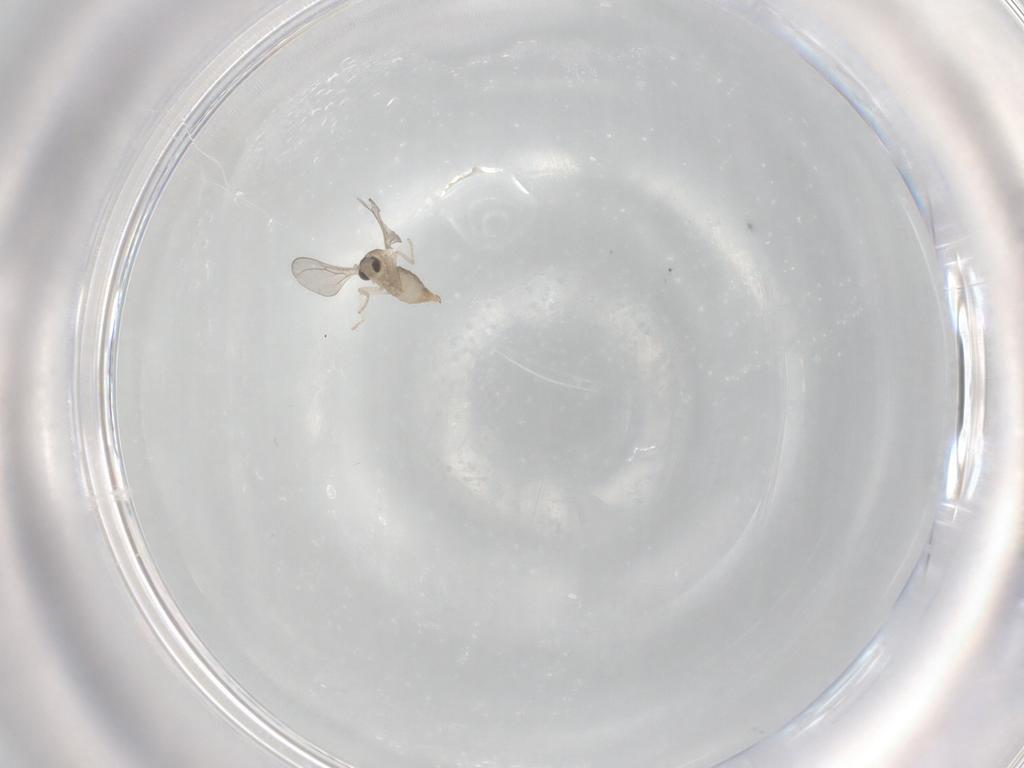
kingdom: Animalia
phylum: Arthropoda
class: Insecta
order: Diptera
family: Cecidomyiidae
